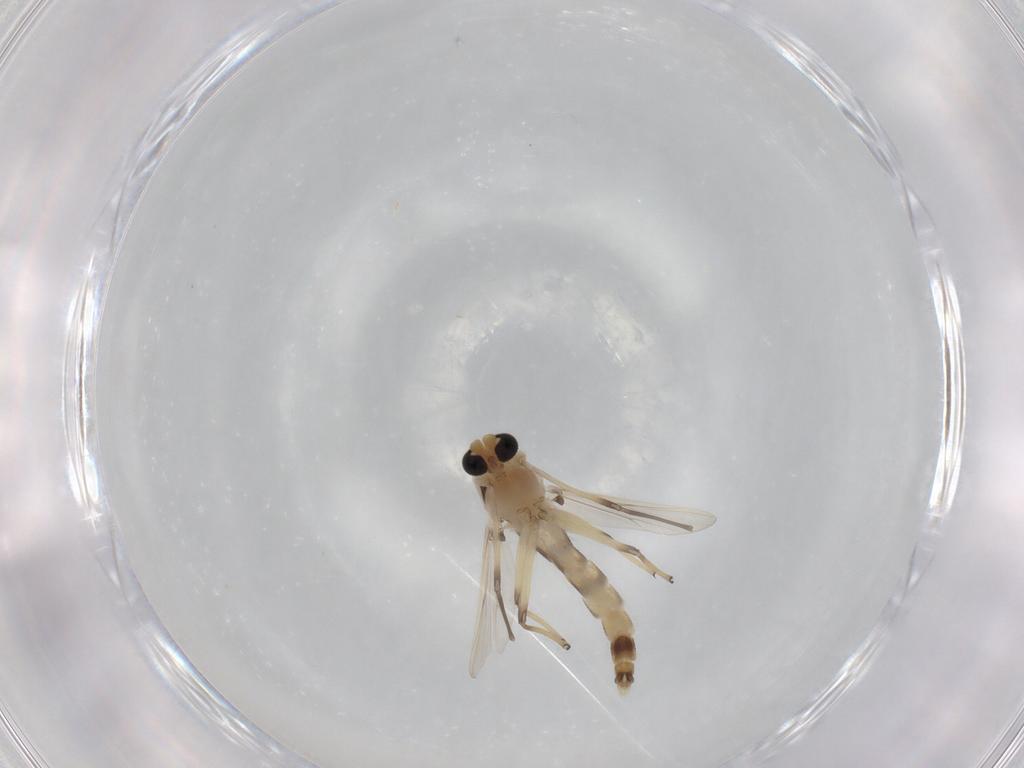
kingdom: Animalia
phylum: Arthropoda
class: Insecta
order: Diptera
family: Chironomidae
